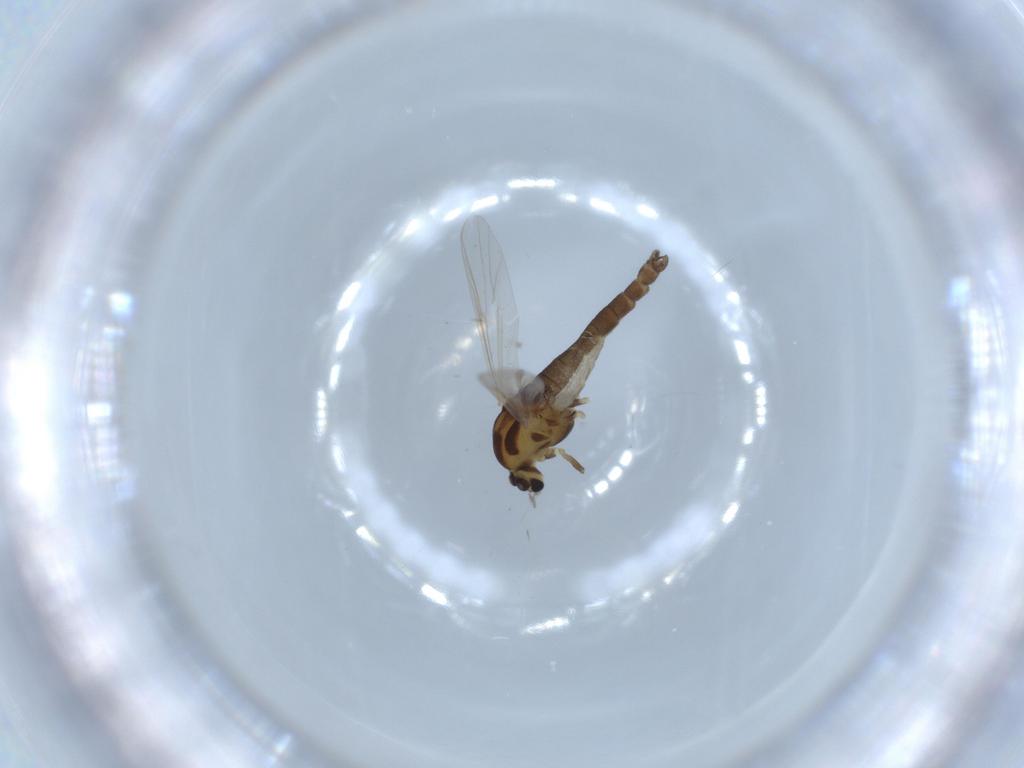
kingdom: Animalia
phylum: Arthropoda
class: Insecta
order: Diptera
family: Chironomidae
